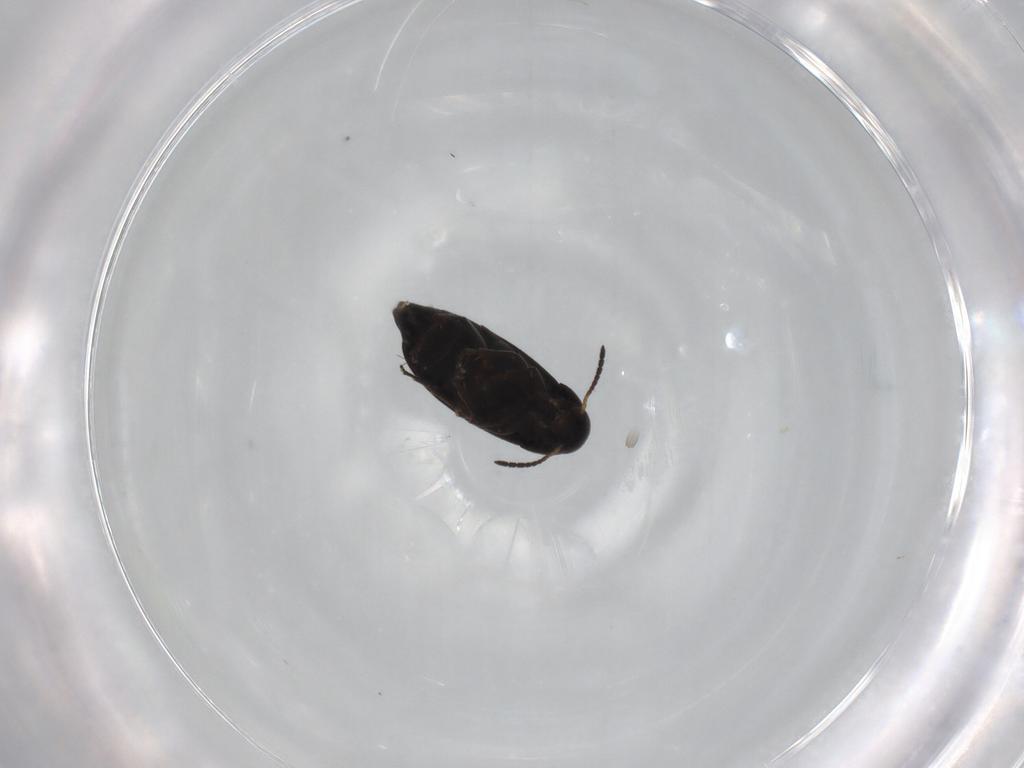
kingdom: Animalia
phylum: Arthropoda
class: Insecta
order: Coleoptera
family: Scraptiidae
